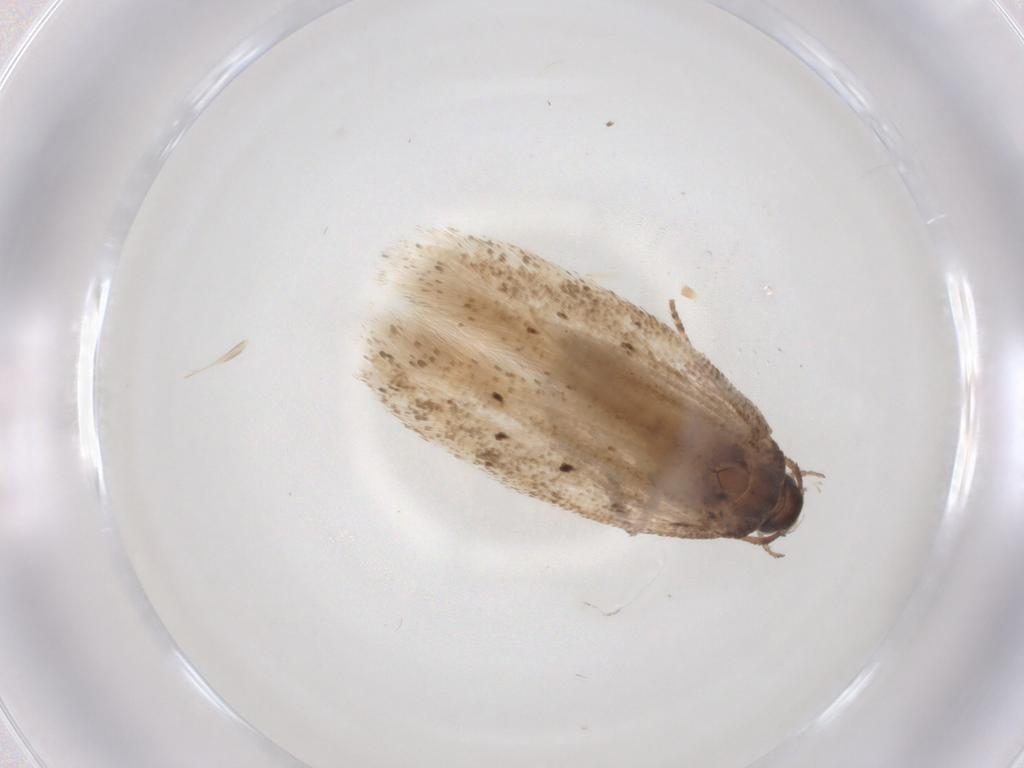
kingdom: Animalia
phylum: Arthropoda
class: Insecta
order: Lepidoptera
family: Gelechiidae
